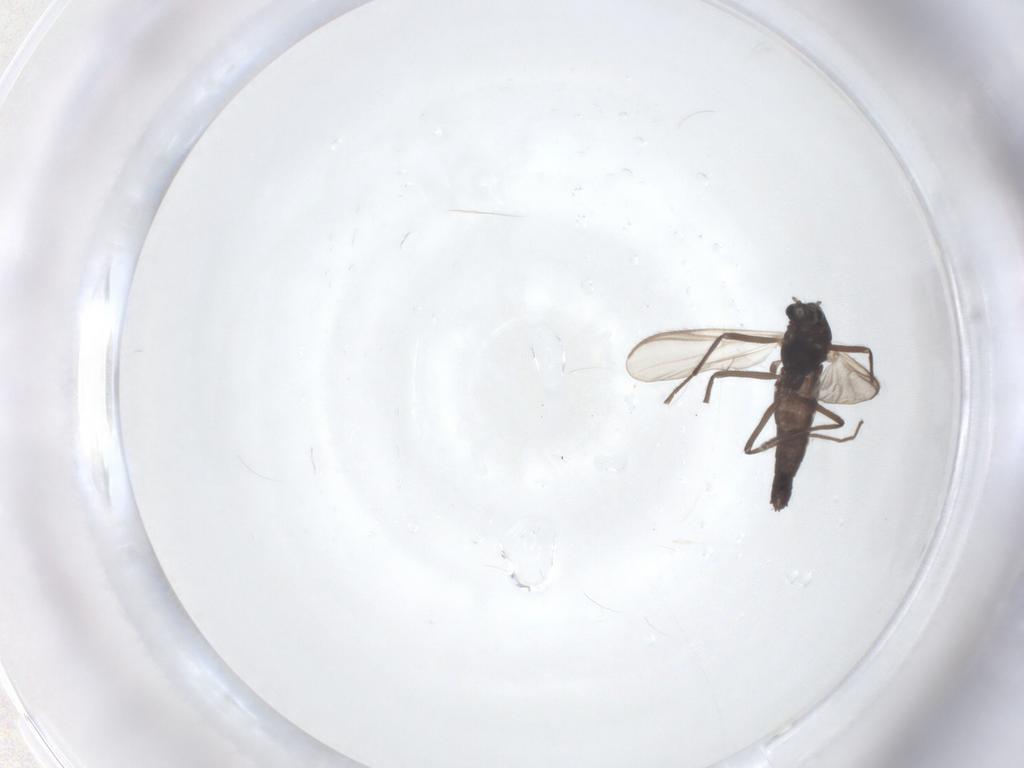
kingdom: Animalia
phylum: Arthropoda
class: Insecta
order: Diptera
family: Chironomidae
